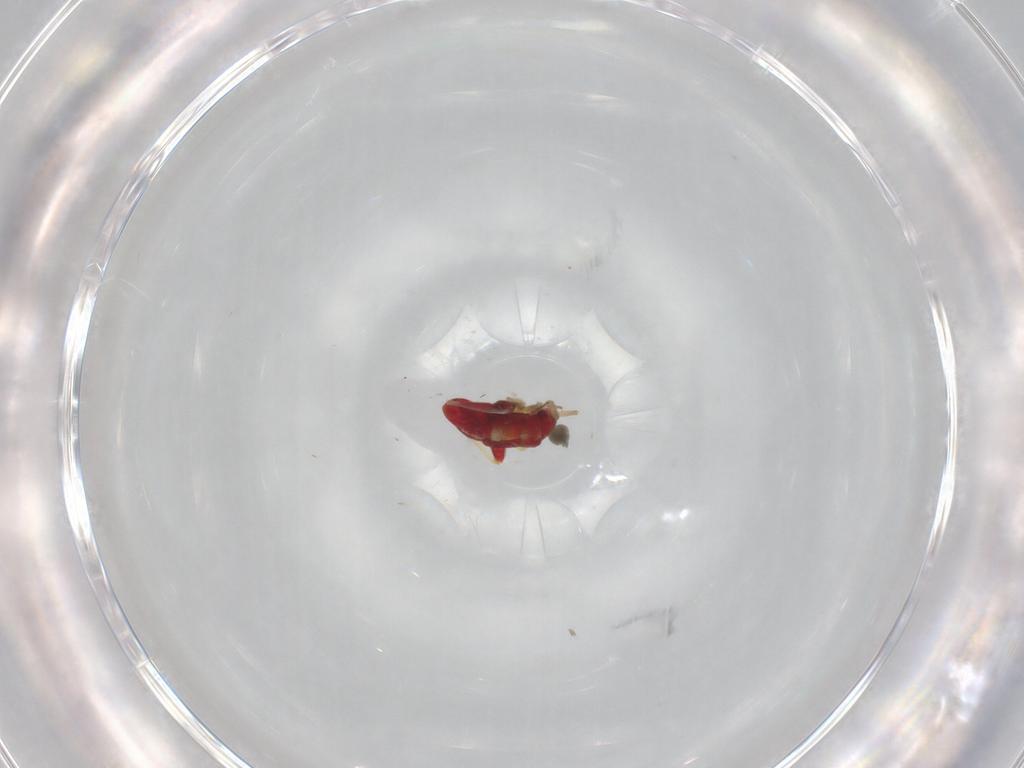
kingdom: Animalia
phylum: Arthropoda
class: Insecta
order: Hemiptera
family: Miridae
